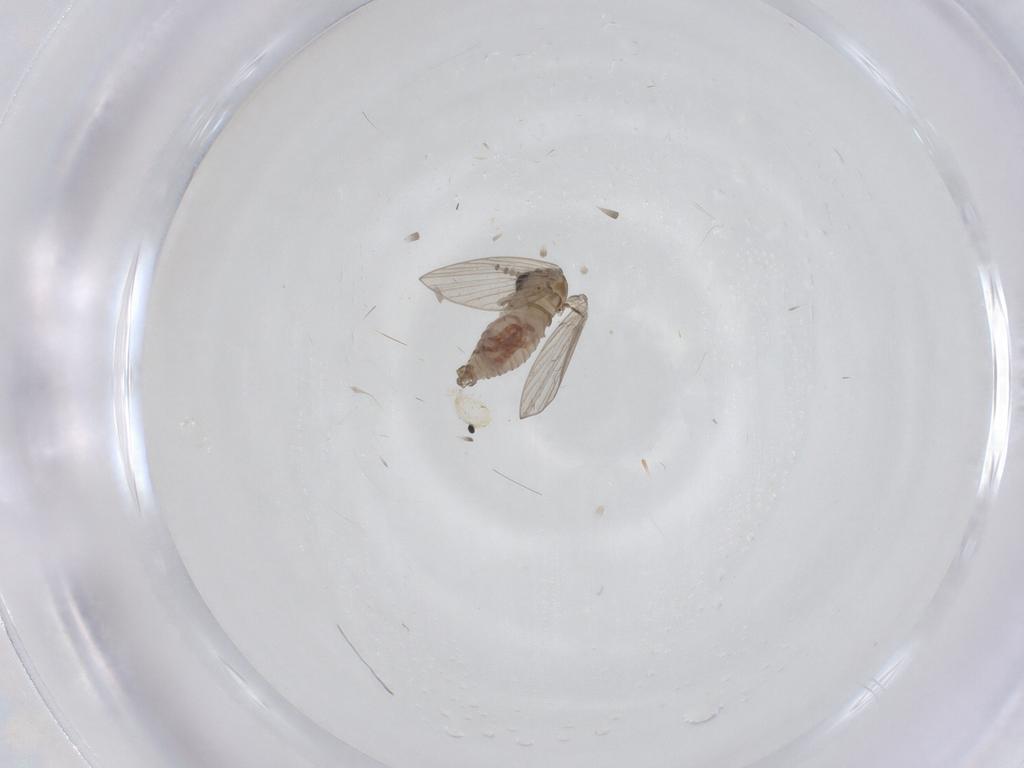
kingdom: Animalia
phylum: Arthropoda
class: Insecta
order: Diptera
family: Psychodidae
